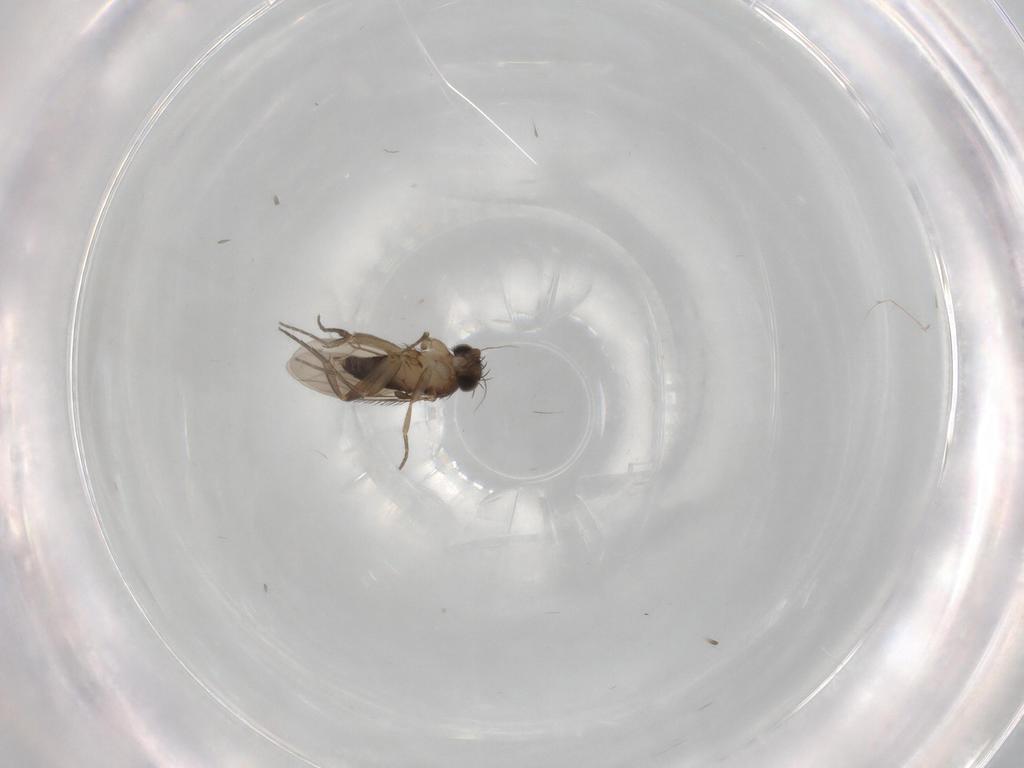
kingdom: Animalia
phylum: Arthropoda
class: Insecta
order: Diptera
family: Phoridae
